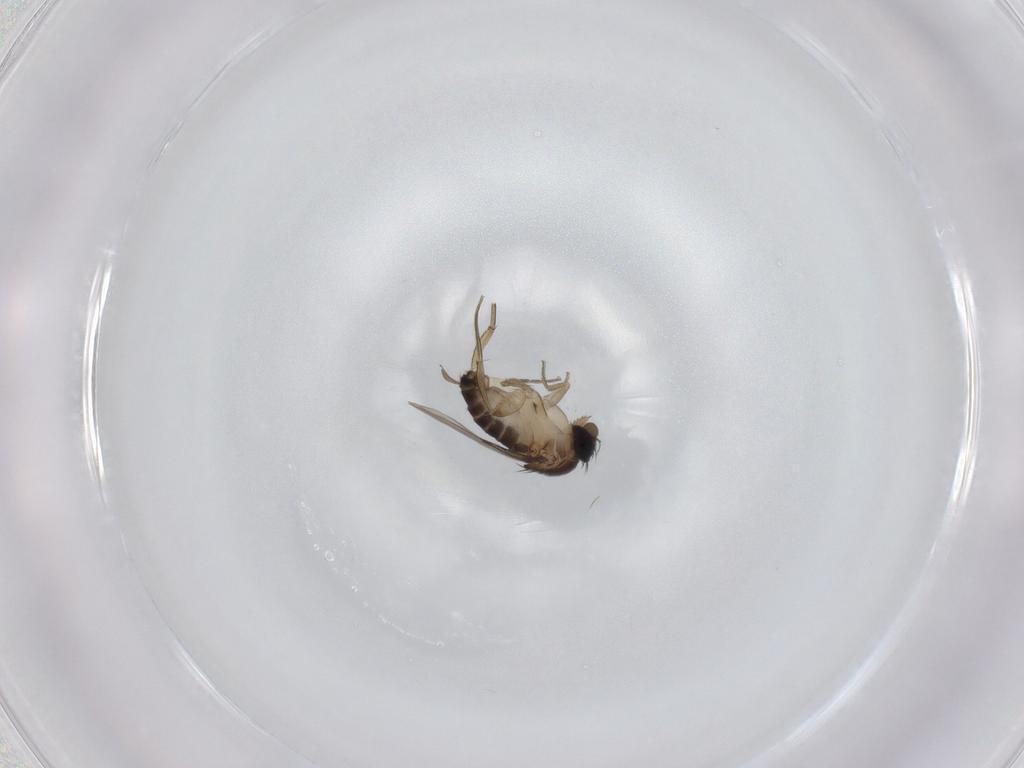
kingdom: Animalia
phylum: Arthropoda
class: Insecta
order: Diptera
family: Phoridae
